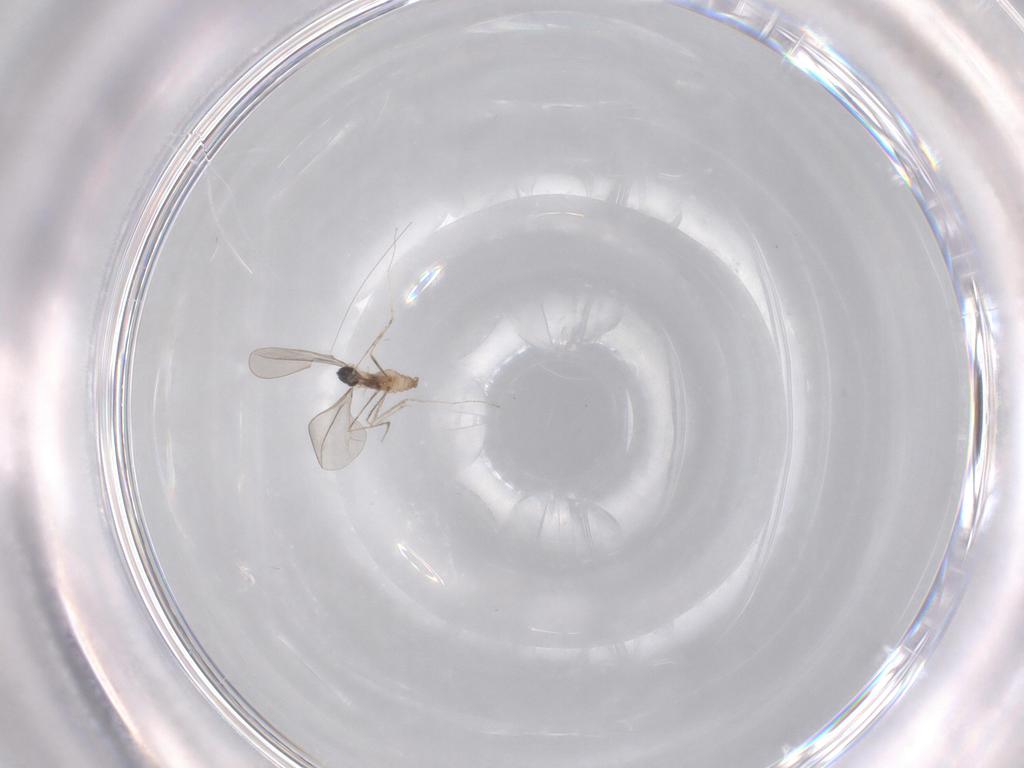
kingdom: Animalia
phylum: Arthropoda
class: Insecta
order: Diptera
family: Cecidomyiidae
